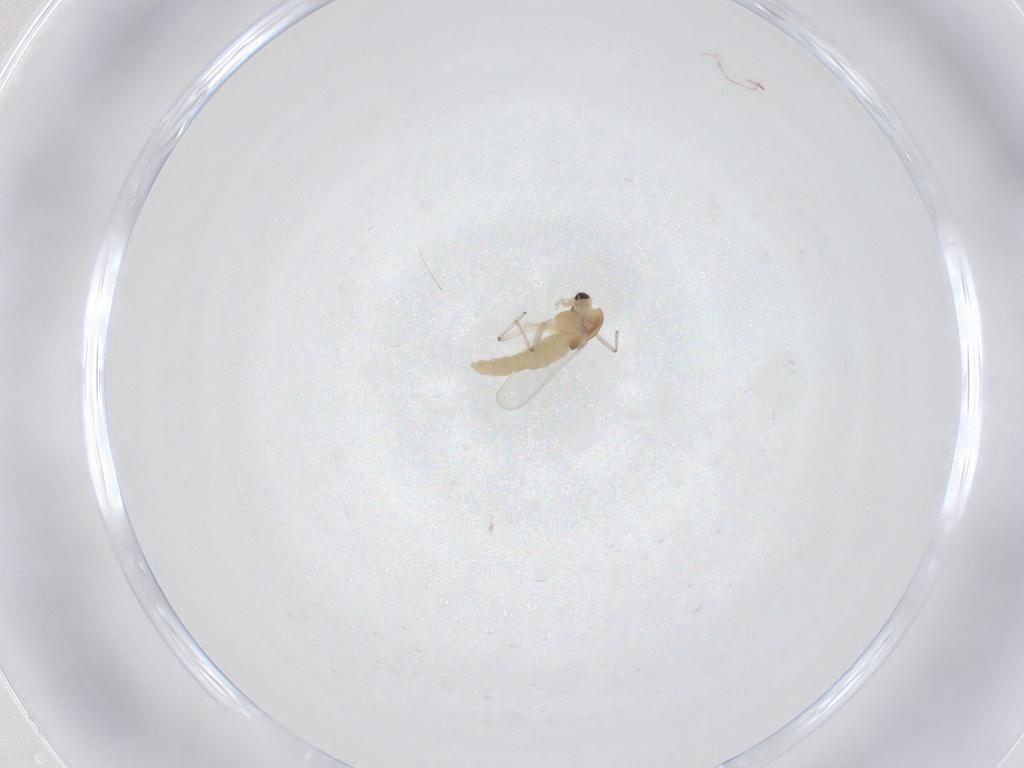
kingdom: Animalia
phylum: Arthropoda
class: Insecta
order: Diptera
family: Chironomidae
